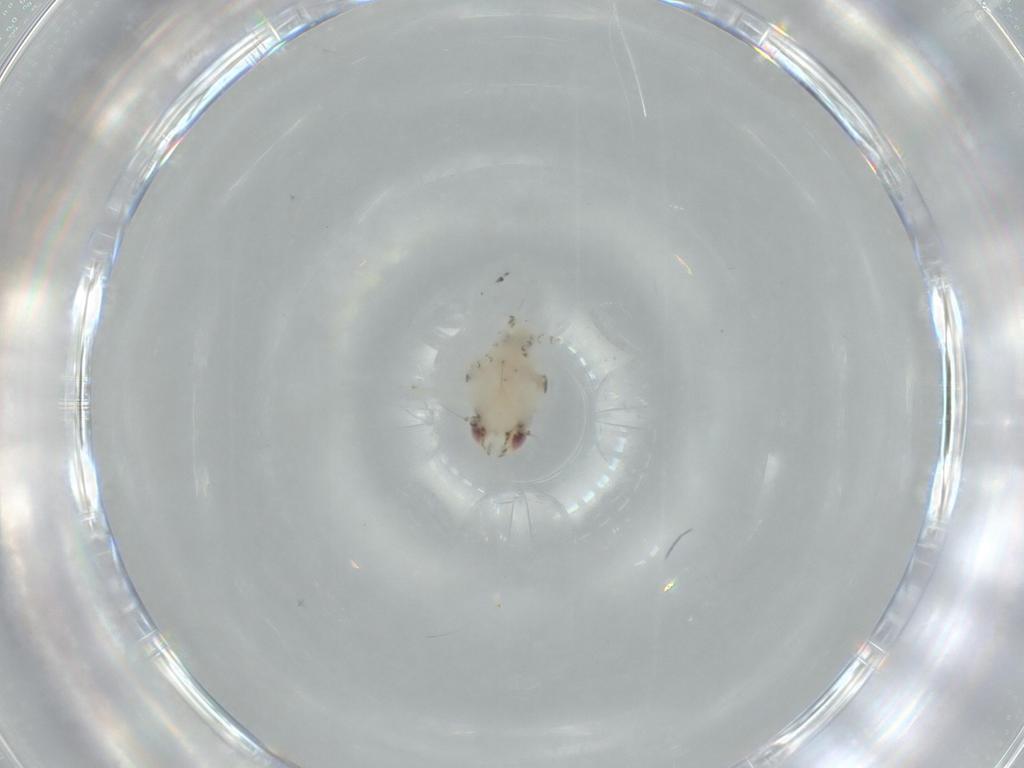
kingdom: Animalia
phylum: Arthropoda
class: Insecta
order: Hemiptera
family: Nogodinidae
